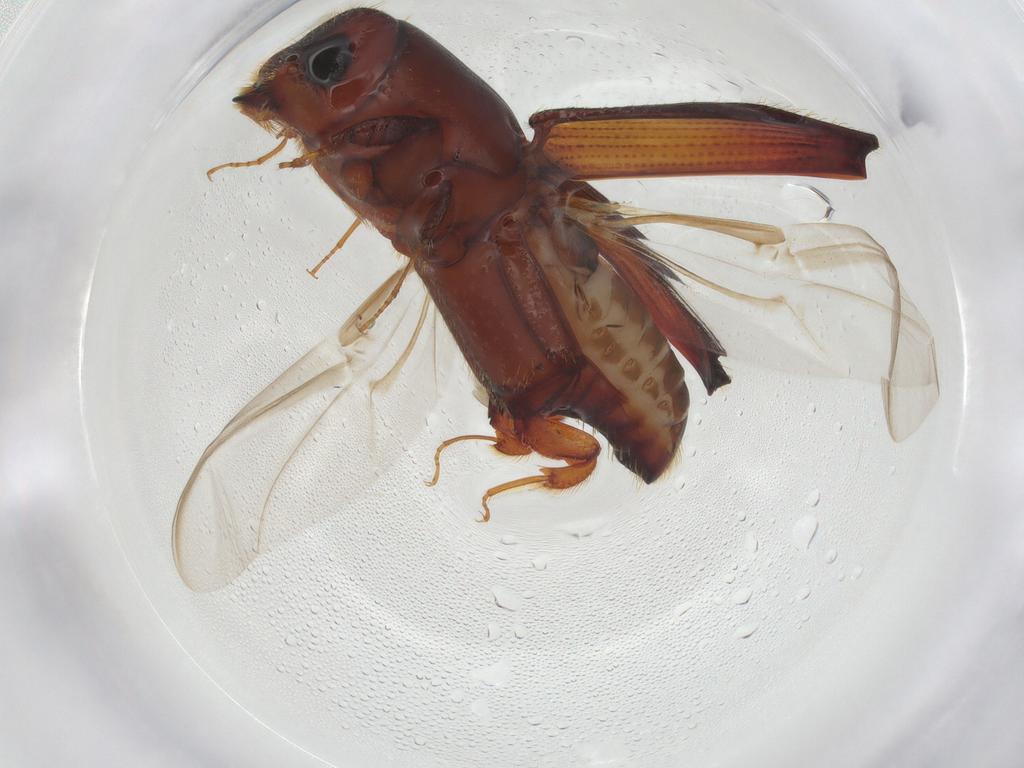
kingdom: Animalia
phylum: Arthropoda
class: Insecta
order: Coleoptera
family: Curculionidae
